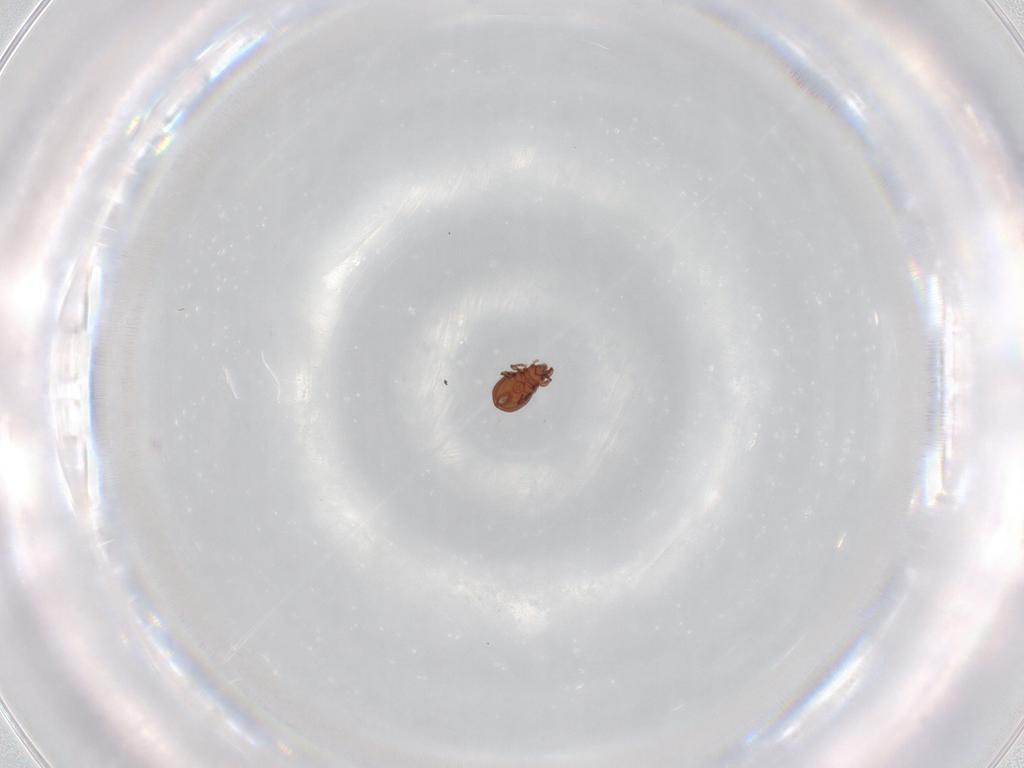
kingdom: Animalia
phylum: Arthropoda
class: Arachnida
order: Sarcoptiformes
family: Eremaeidae
